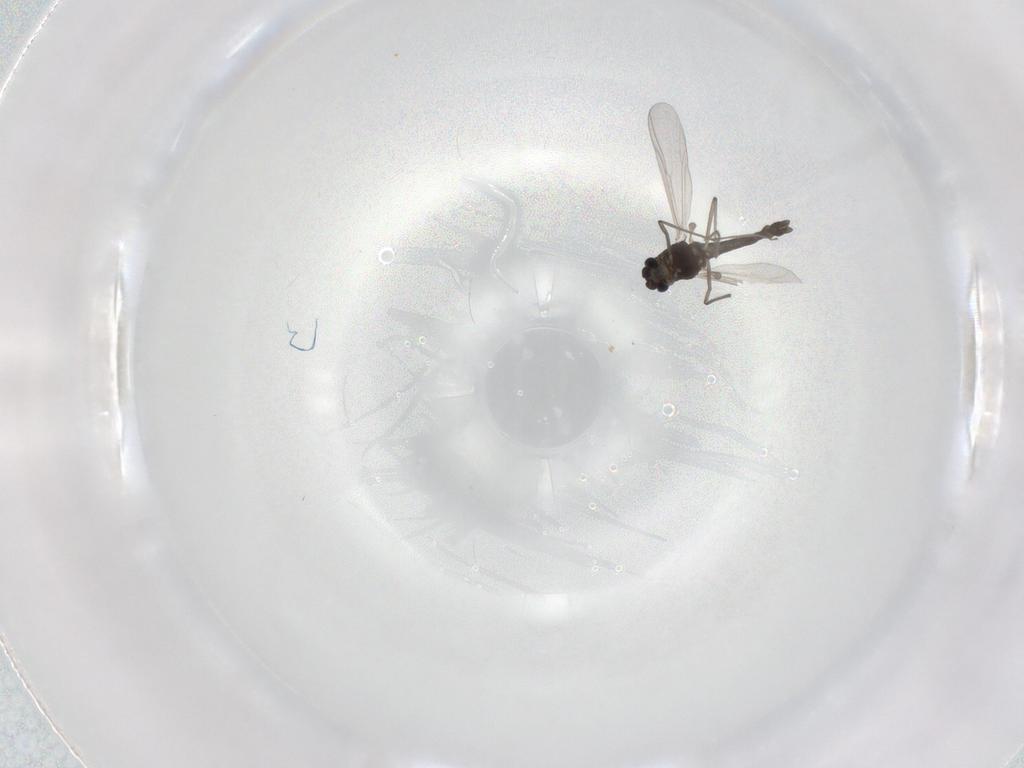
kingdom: Animalia
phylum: Arthropoda
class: Insecta
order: Diptera
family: Chironomidae
